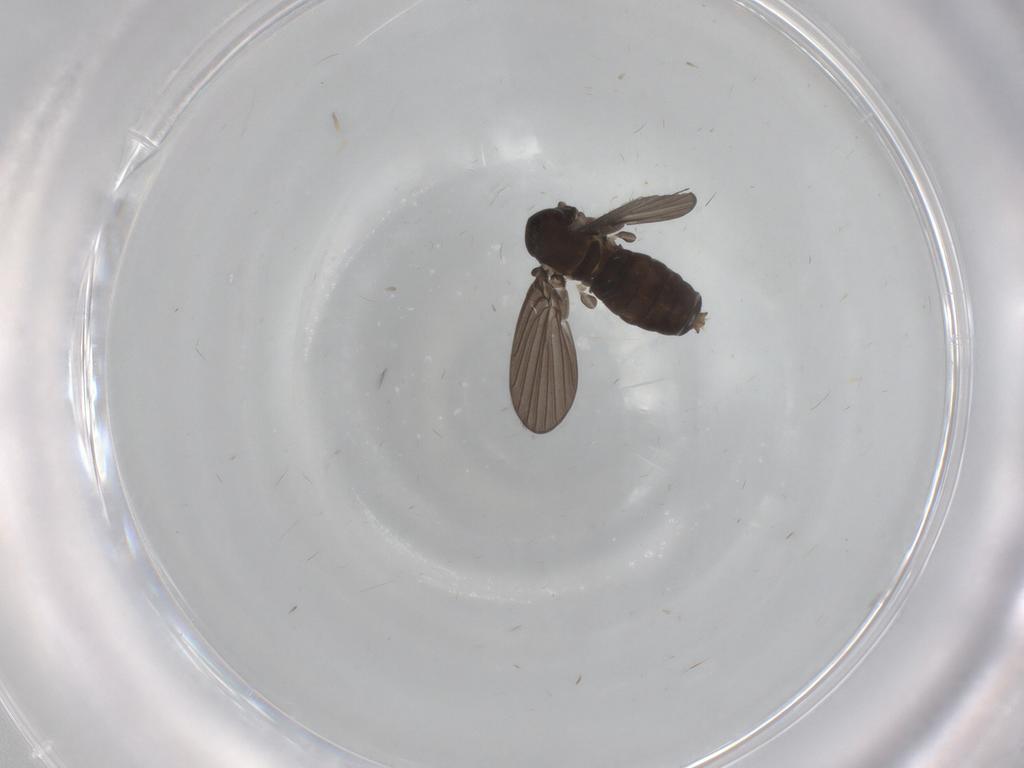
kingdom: Animalia
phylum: Arthropoda
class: Insecta
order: Diptera
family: Psychodidae
